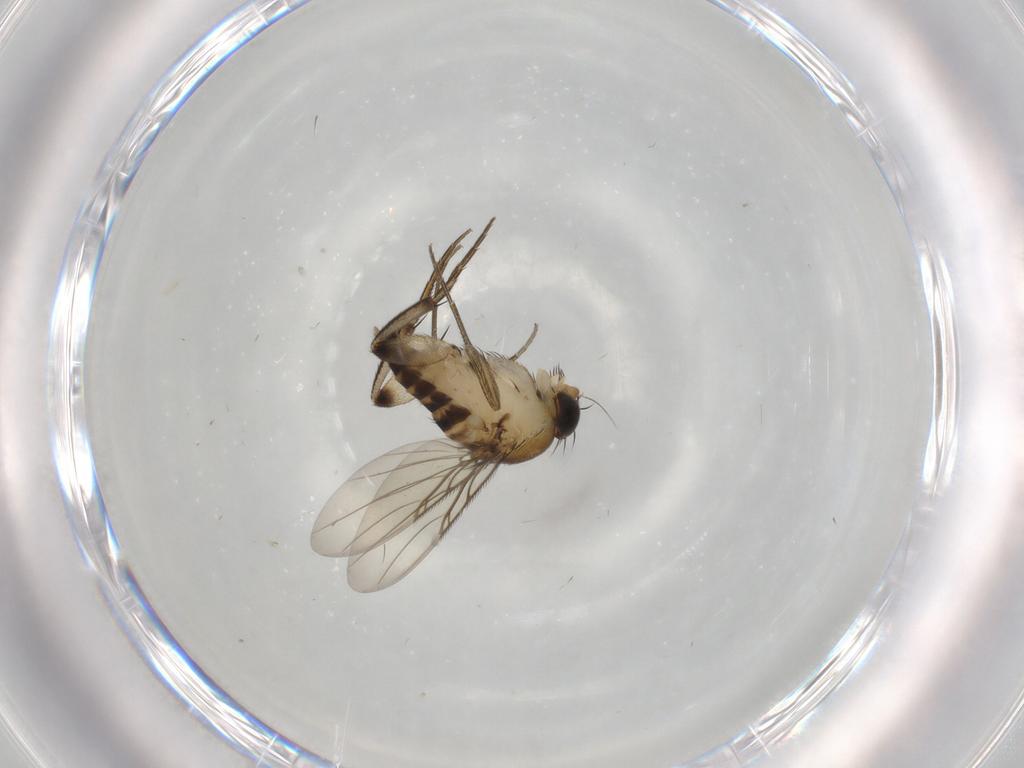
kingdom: Animalia
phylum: Arthropoda
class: Insecta
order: Diptera
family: Phoridae
